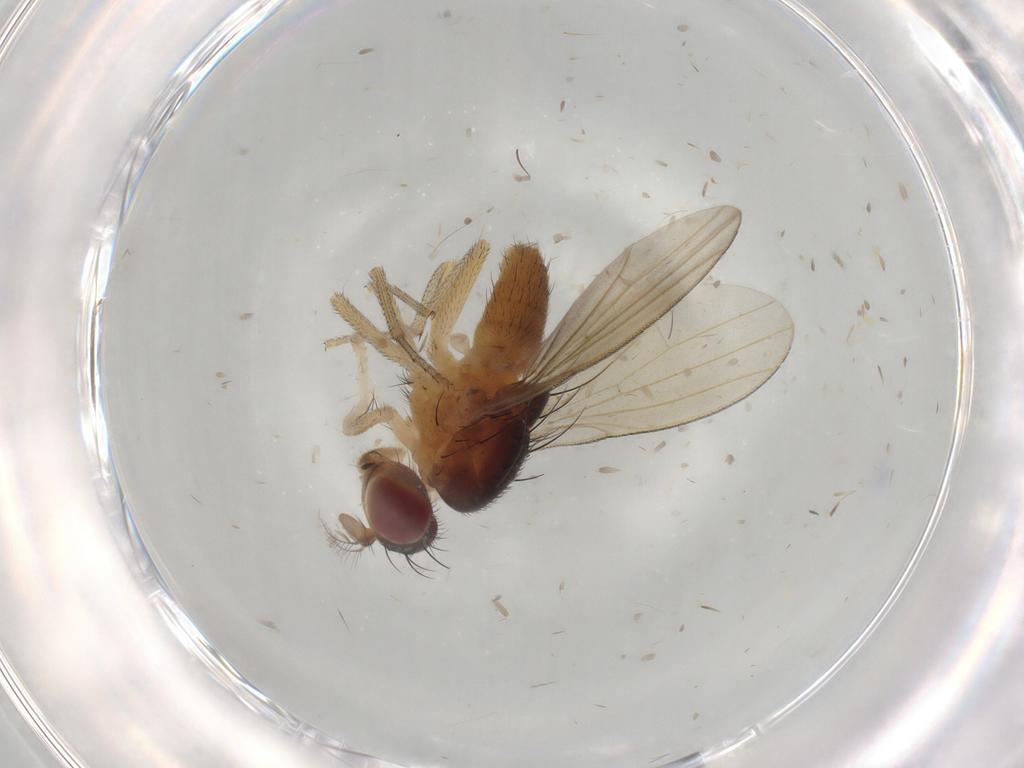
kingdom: Animalia
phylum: Arthropoda
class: Insecta
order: Diptera
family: Lauxaniidae
